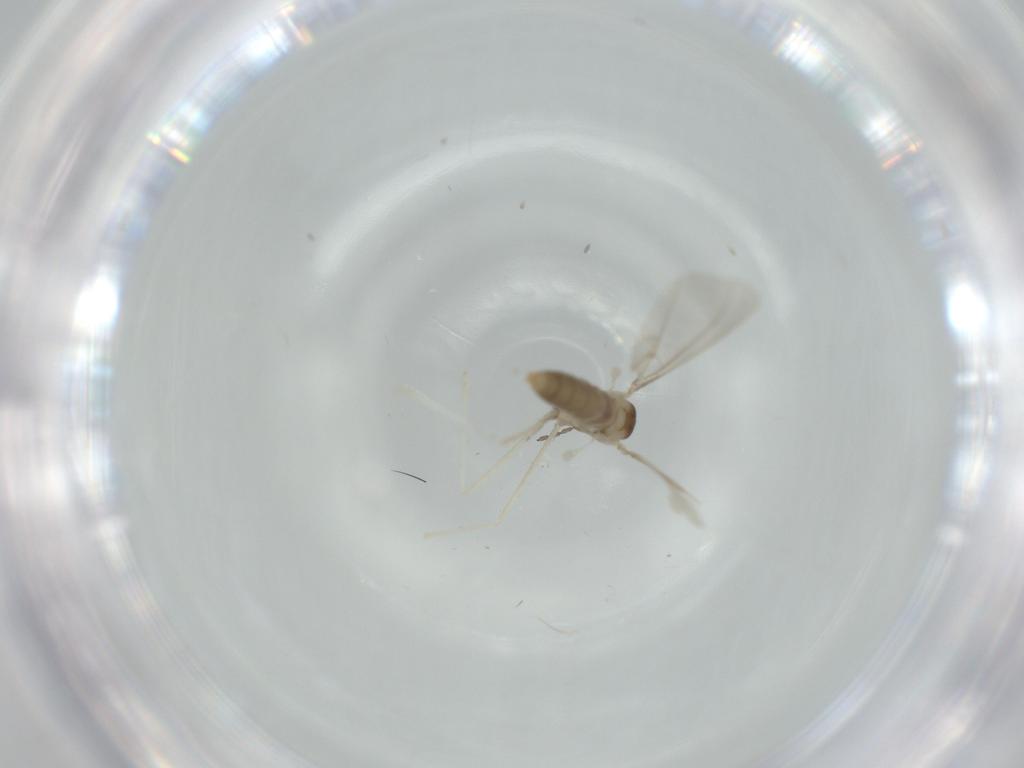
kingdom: Animalia
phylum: Arthropoda
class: Insecta
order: Diptera
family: Cecidomyiidae
